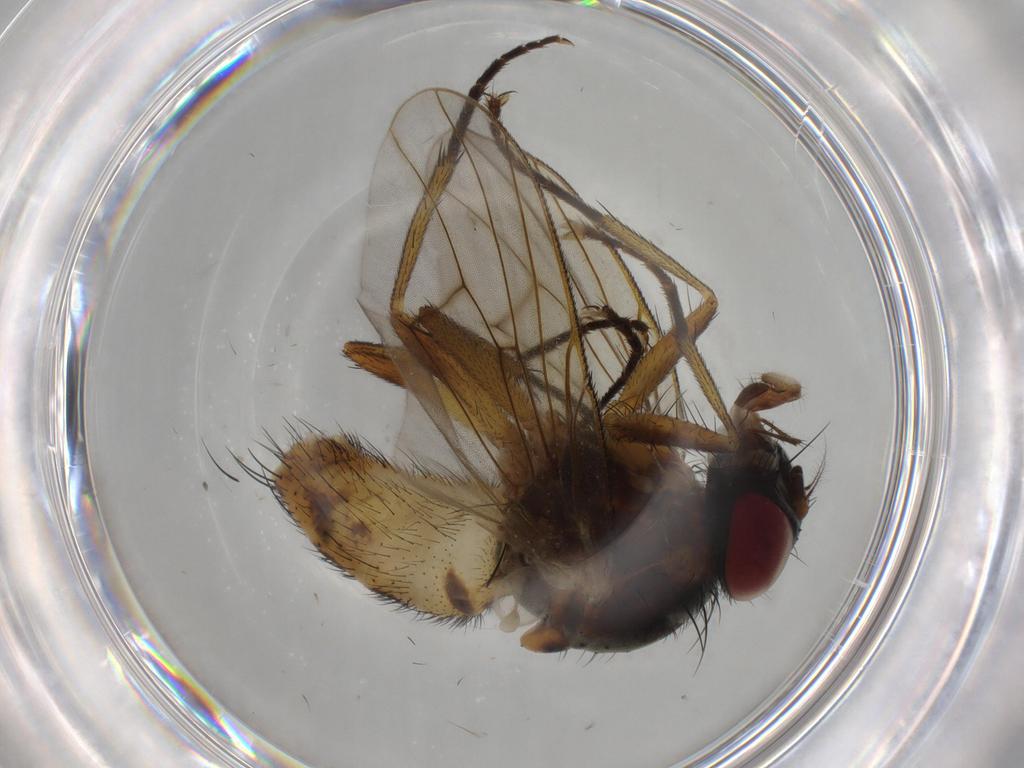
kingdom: Animalia
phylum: Arthropoda
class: Insecta
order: Diptera
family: Muscidae
